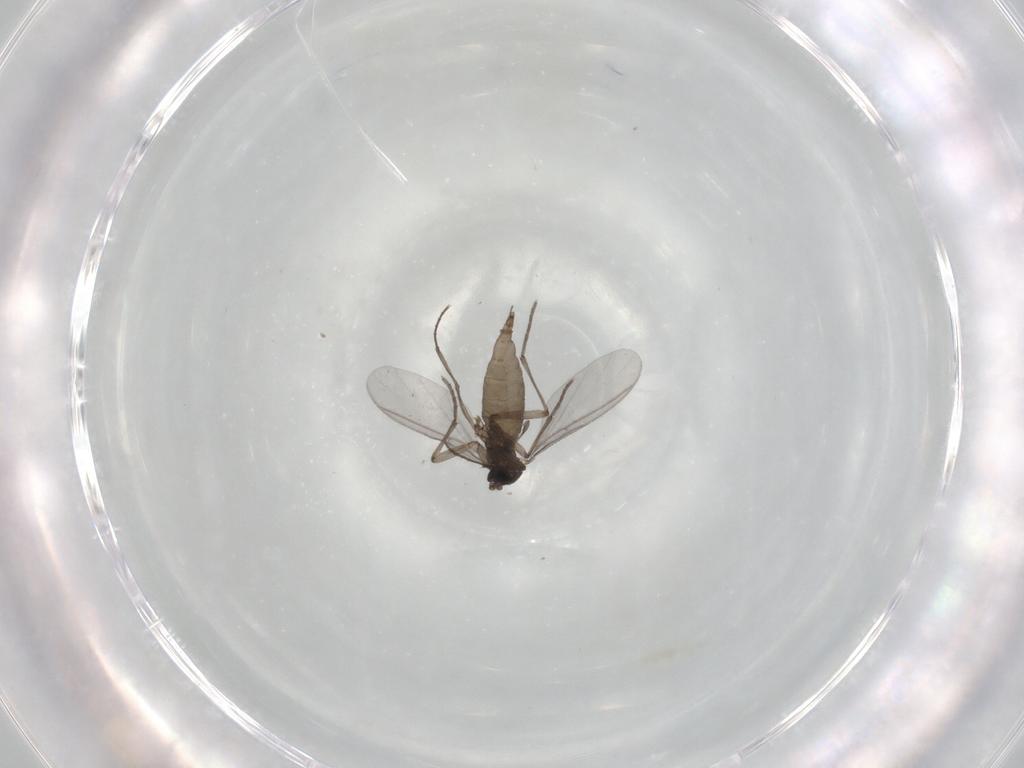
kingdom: Animalia
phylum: Arthropoda
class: Insecta
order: Diptera
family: Sciaridae
